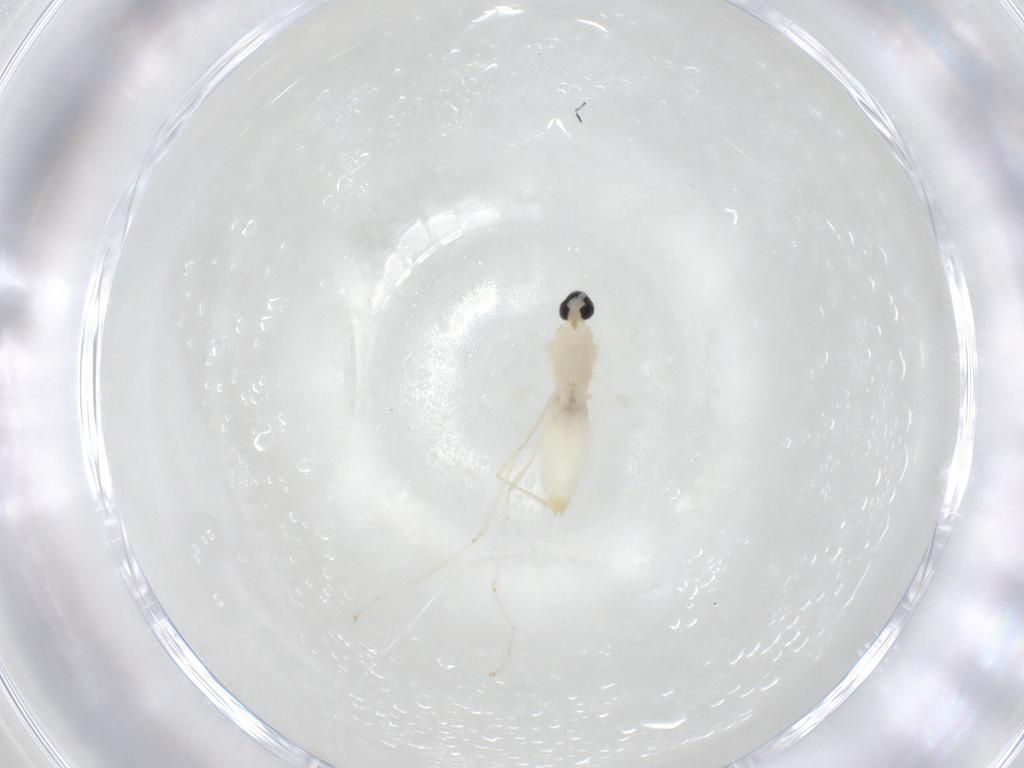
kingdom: Animalia
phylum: Arthropoda
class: Insecta
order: Diptera
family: Cecidomyiidae
